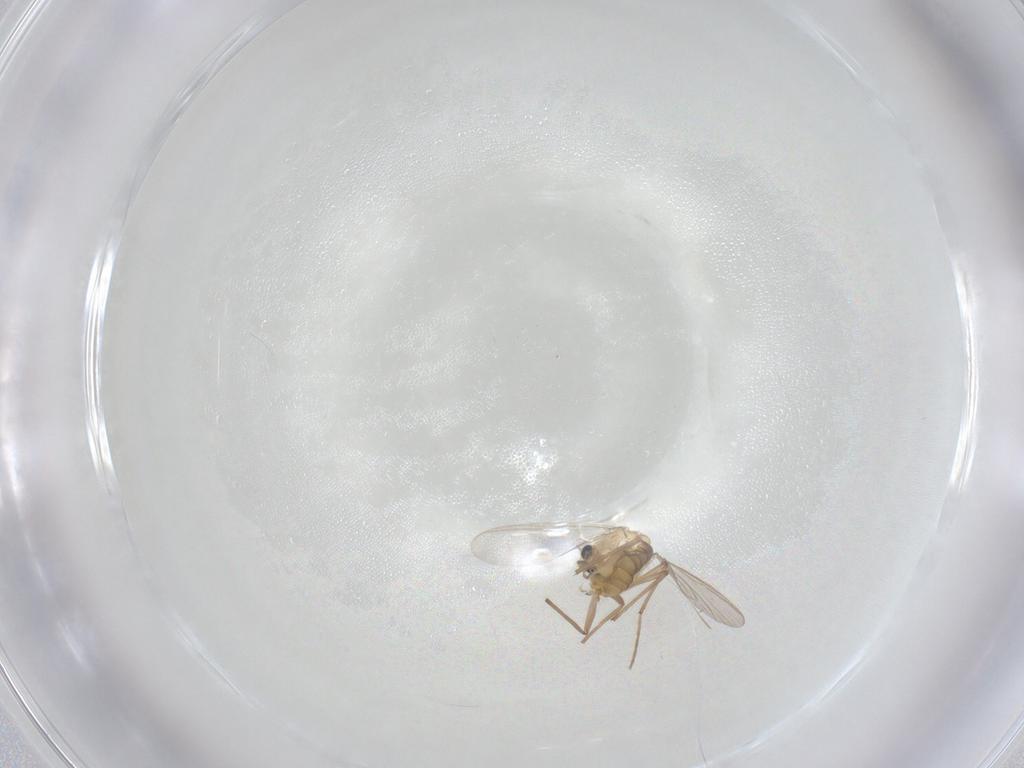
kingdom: Animalia
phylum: Arthropoda
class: Insecta
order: Diptera
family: Chironomidae
